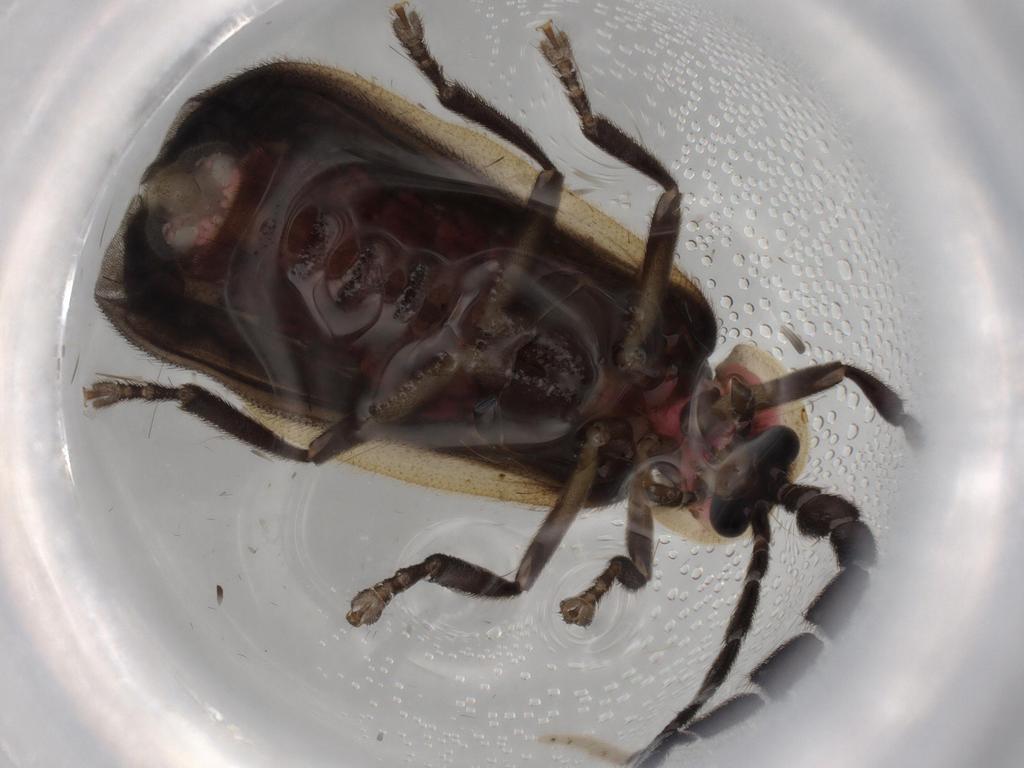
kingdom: Animalia
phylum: Arthropoda
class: Insecta
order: Coleoptera
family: Lampyridae
